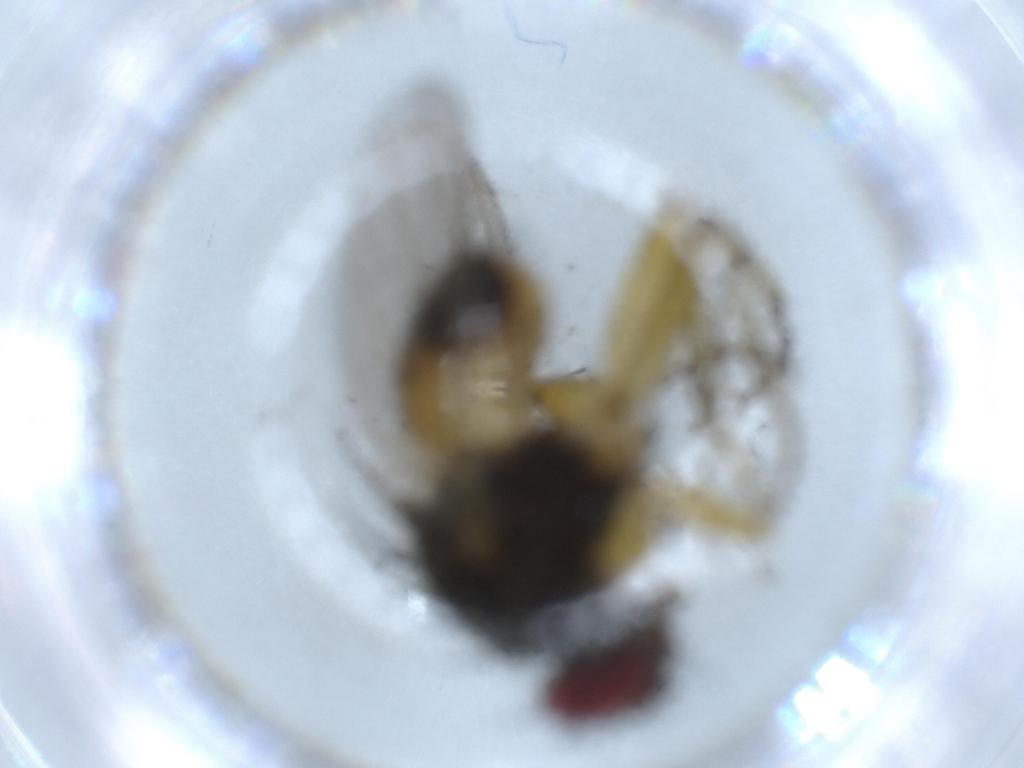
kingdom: Animalia
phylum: Arthropoda
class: Insecta
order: Diptera
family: Muscidae
